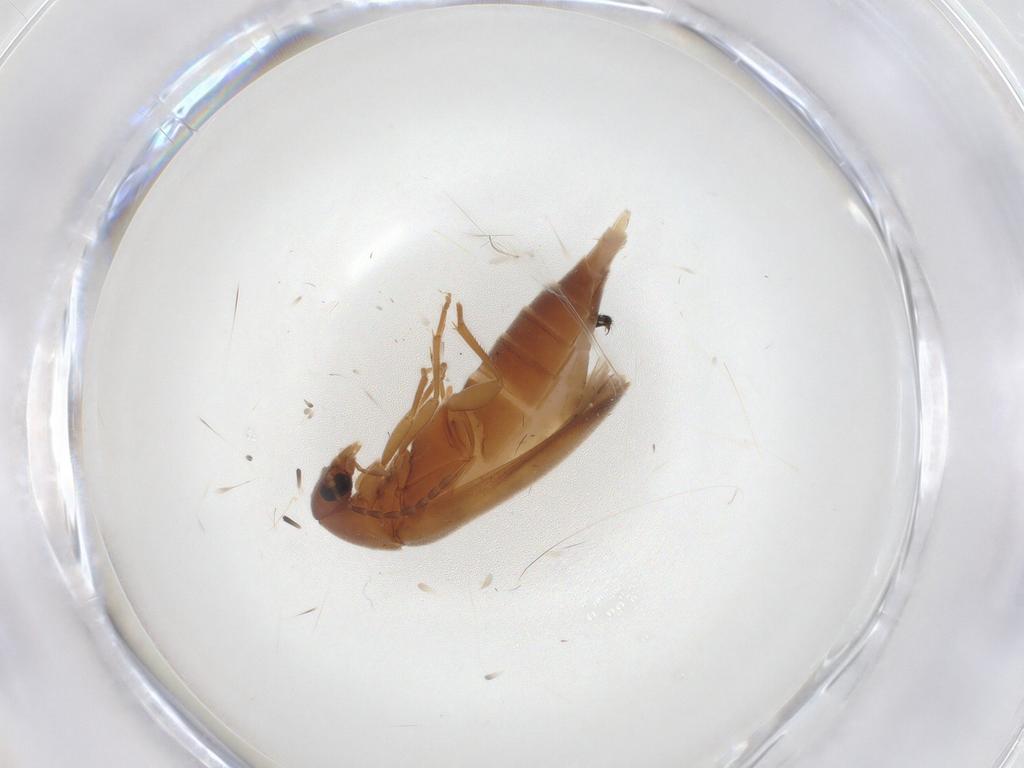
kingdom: Animalia
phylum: Arthropoda
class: Insecta
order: Coleoptera
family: Scraptiidae
